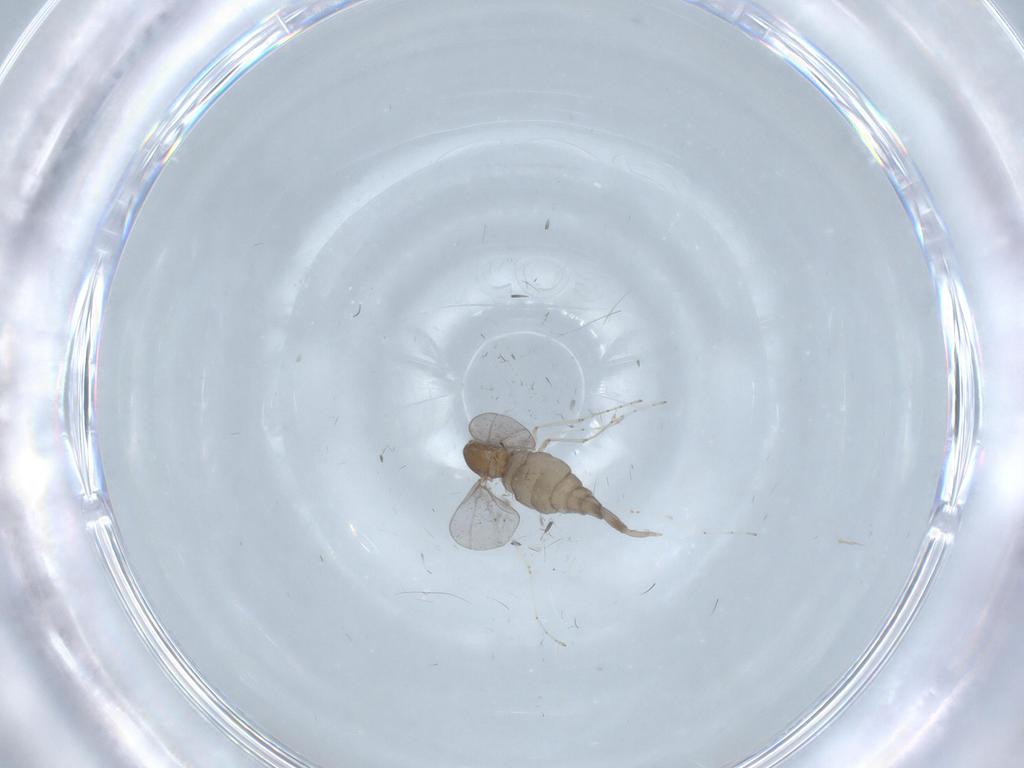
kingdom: Animalia
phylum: Arthropoda
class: Insecta
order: Diptera
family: Cecidomyiidae
